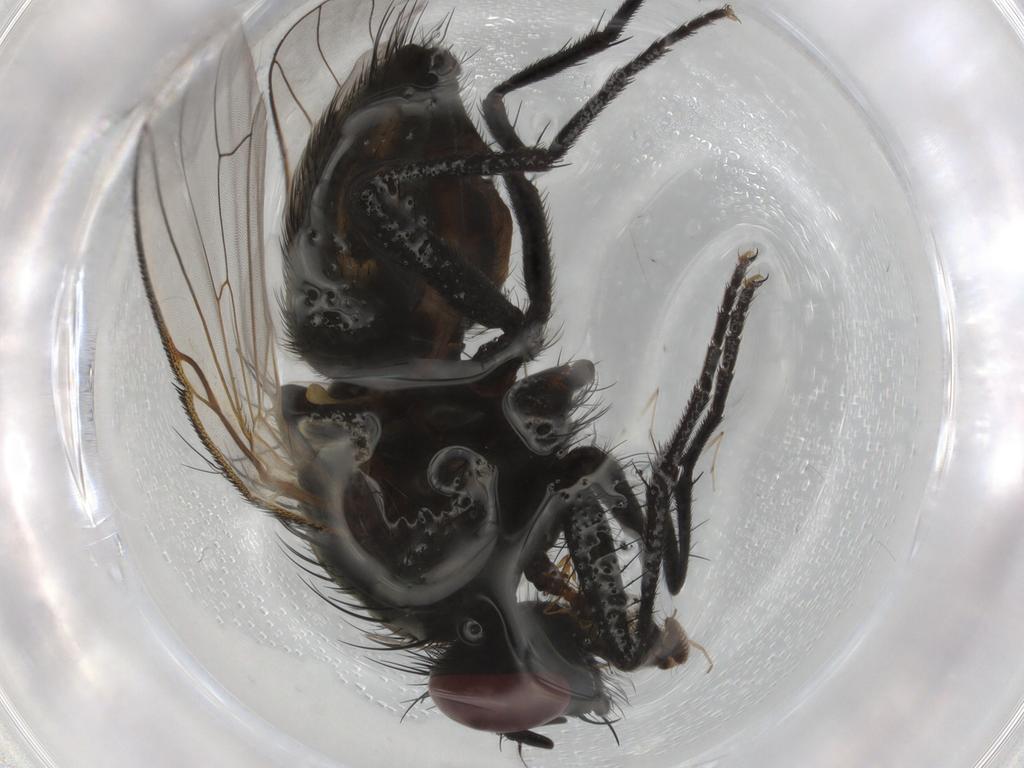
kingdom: Animalia
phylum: Arthropoda
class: Insecta
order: Diptera
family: Muscidae
